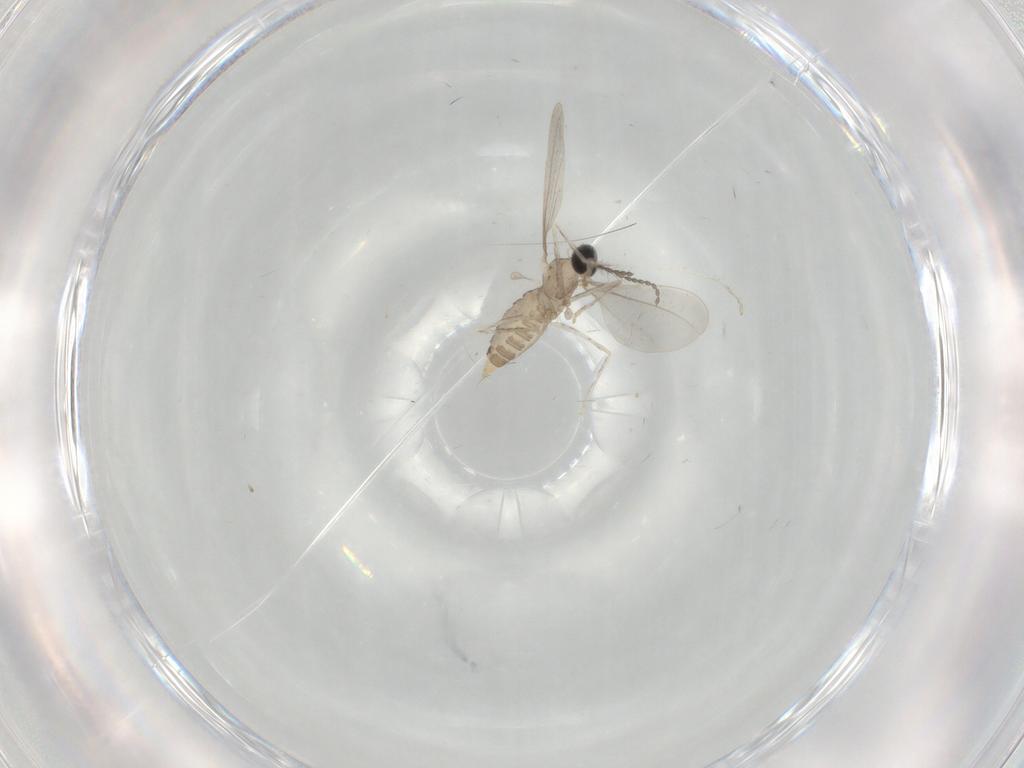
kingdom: Animalia
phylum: Arthropoda
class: Insecta
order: Diptera
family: Cecidomyiidae
